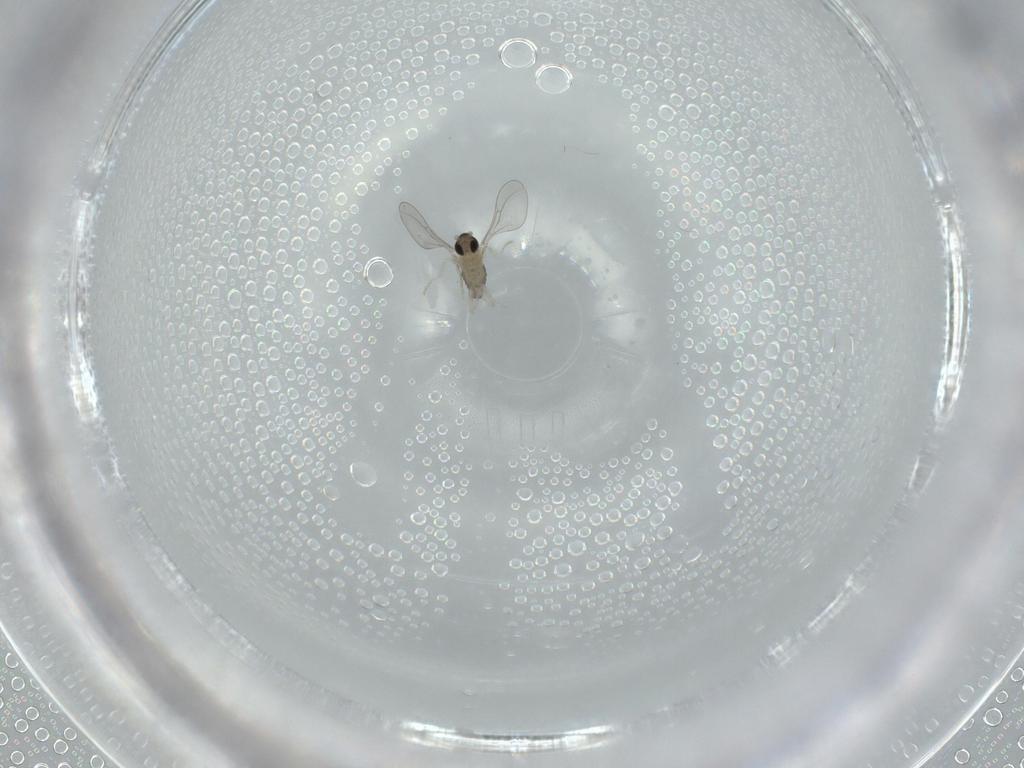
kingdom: Animalia
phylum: Arthropoda
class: Insecta
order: Diptera
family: Cecidomyiidae
